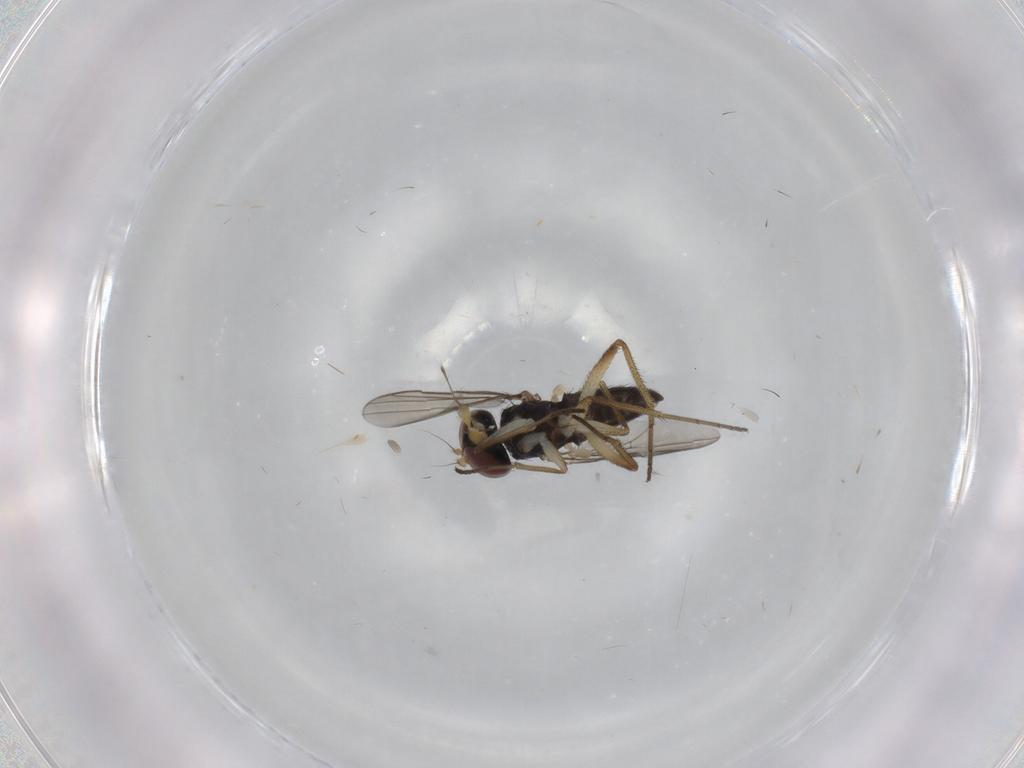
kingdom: Animalia
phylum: Arthropoda
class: Insecta
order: Diptera
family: Dolichopodidae
